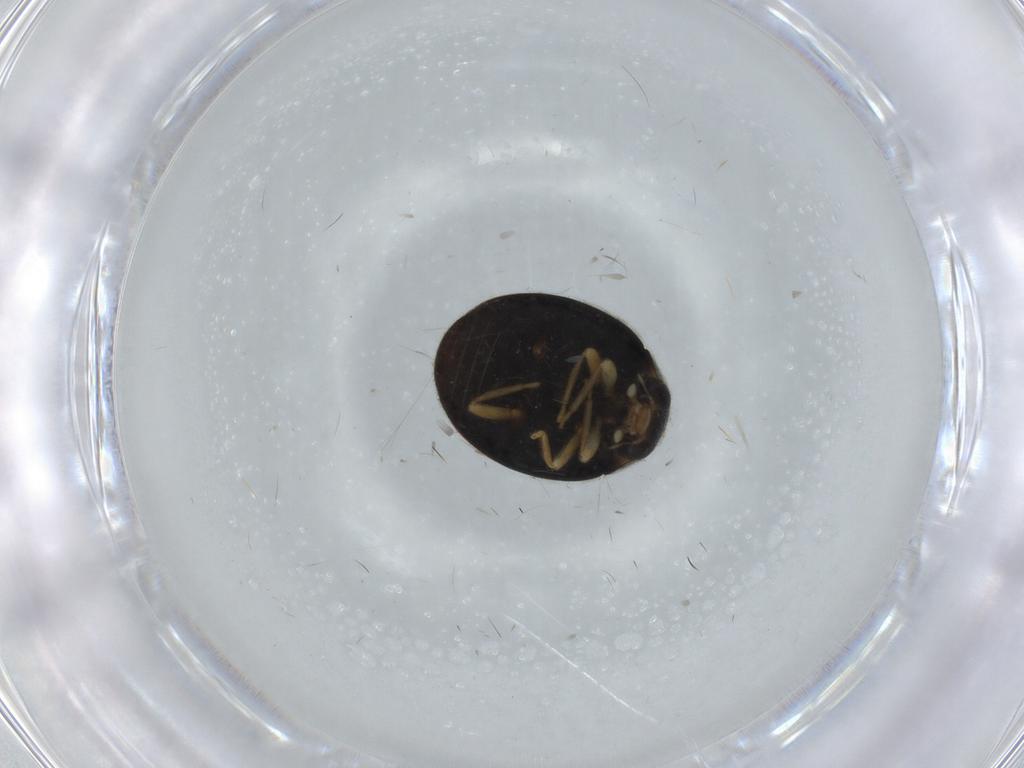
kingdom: Animalia
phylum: Arthropoda
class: Insecta
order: Coleoptera
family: Coccinellidae
